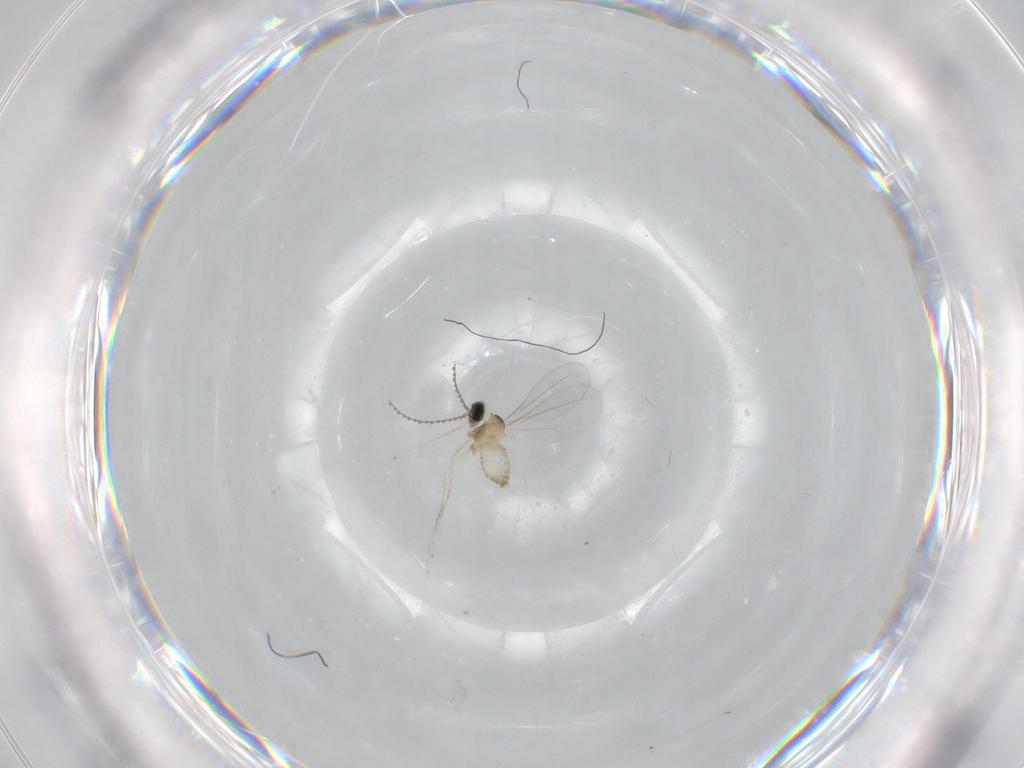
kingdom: Animalia
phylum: Arthropoda
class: Insecta
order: Diptera
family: Cecidomyiidae
